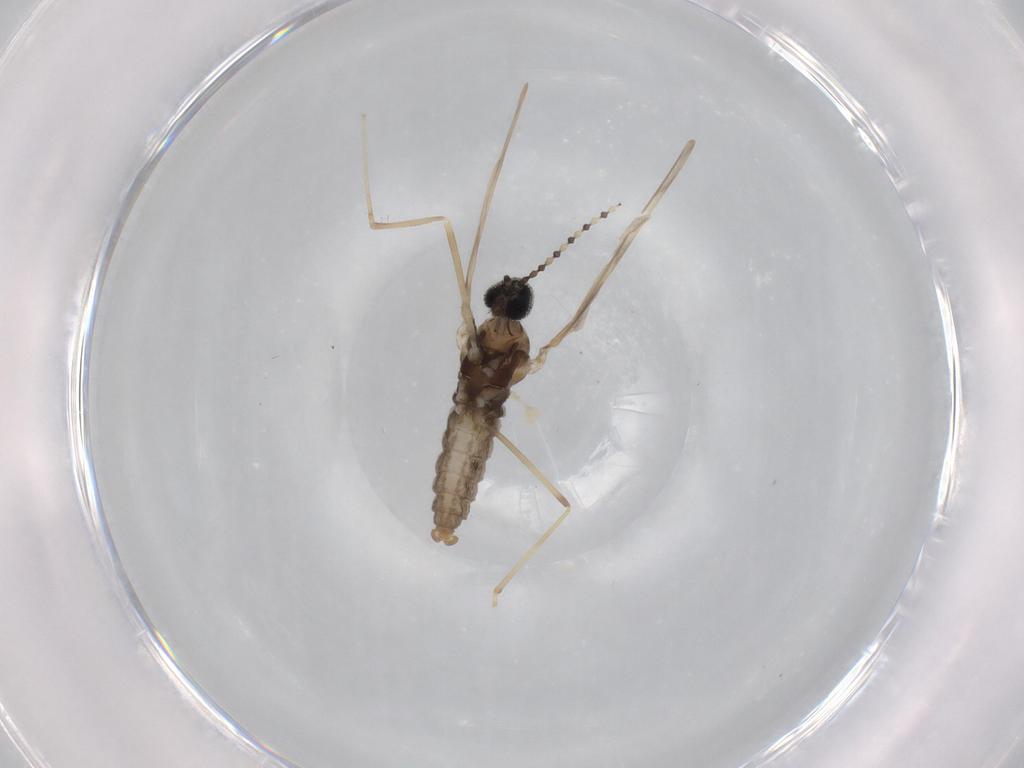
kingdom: Animalia
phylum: Arthropoda
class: Insecta
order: Diptera
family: Cecidomyiidae
